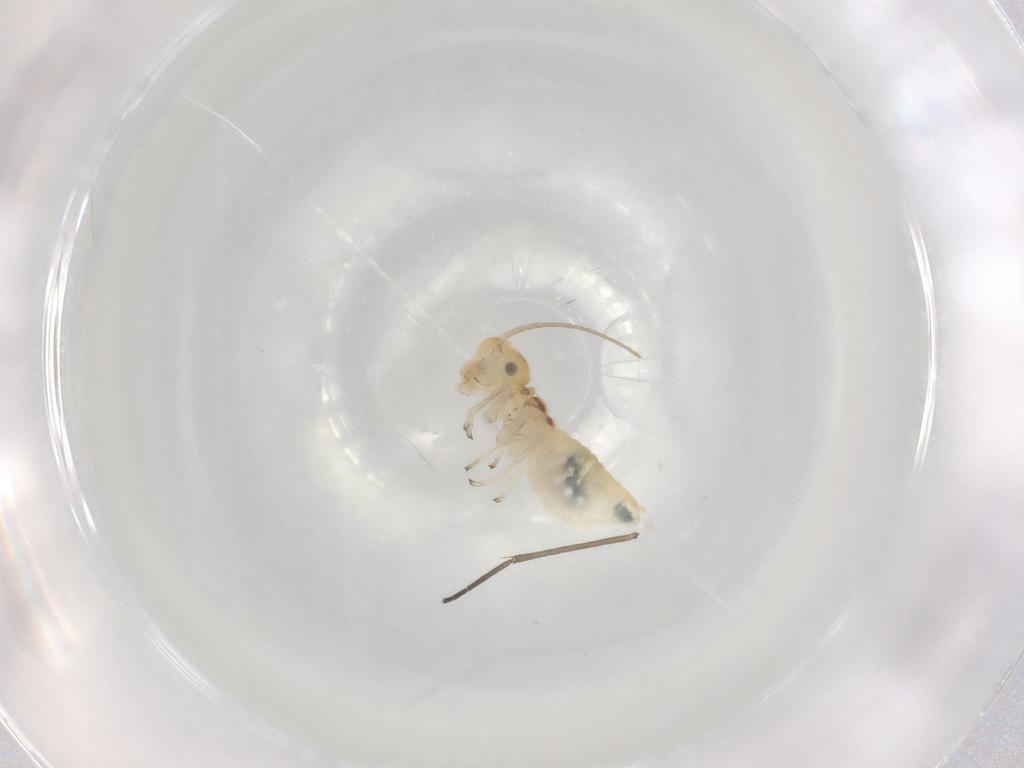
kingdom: Animalia
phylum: Arthropoda
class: Insecta
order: Psocodea
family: Stenopsocidae
